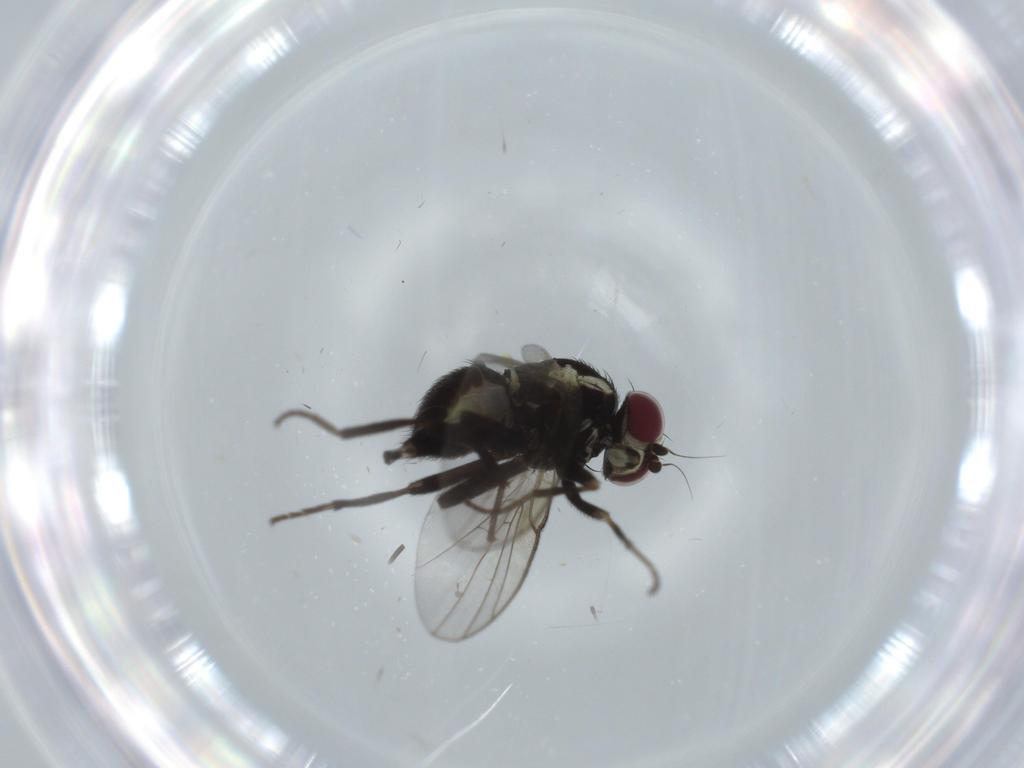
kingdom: Animalia
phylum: Arthropoda
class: Insecta
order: Diptera
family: Agromyzidae
